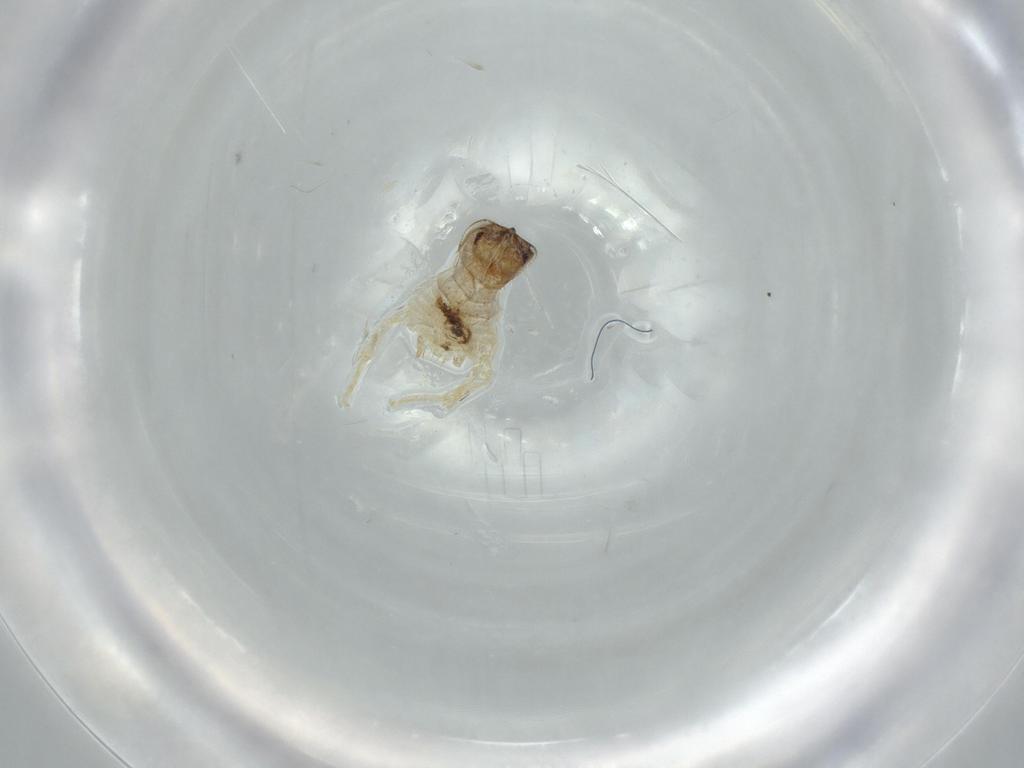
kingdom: Animalia
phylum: Arthropoda
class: Insecta
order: Blattodea
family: Ectobiidae
